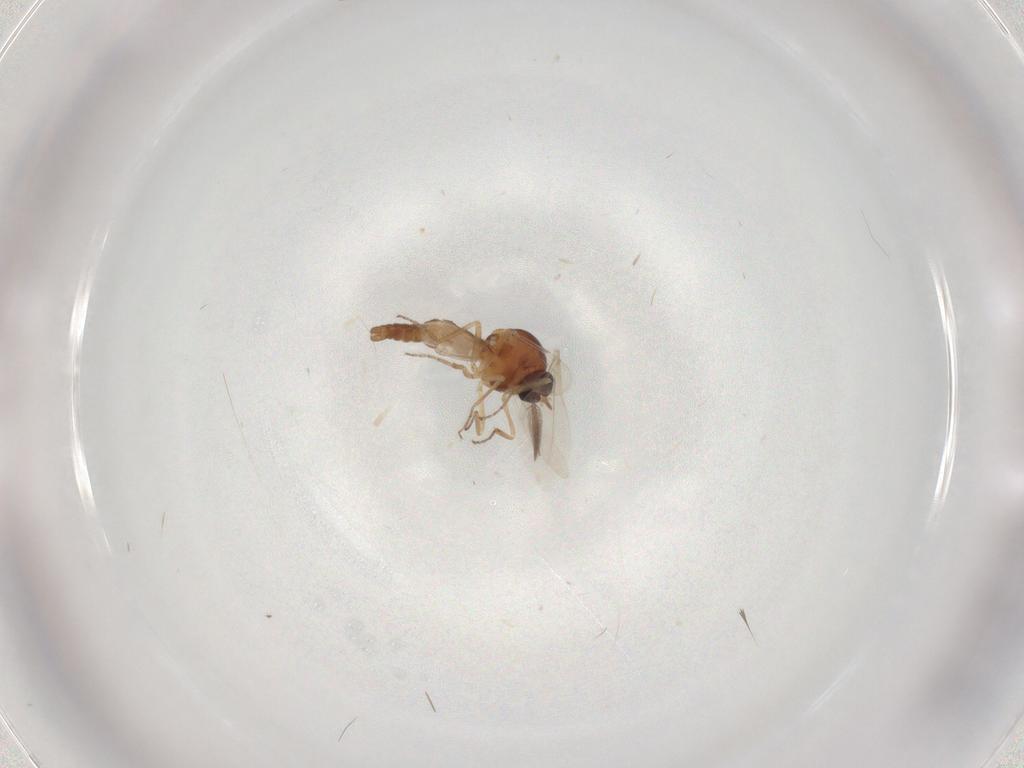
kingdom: Animalia
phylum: Arthropoda
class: Insecta
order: Diptera
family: Ceratopogonidae
